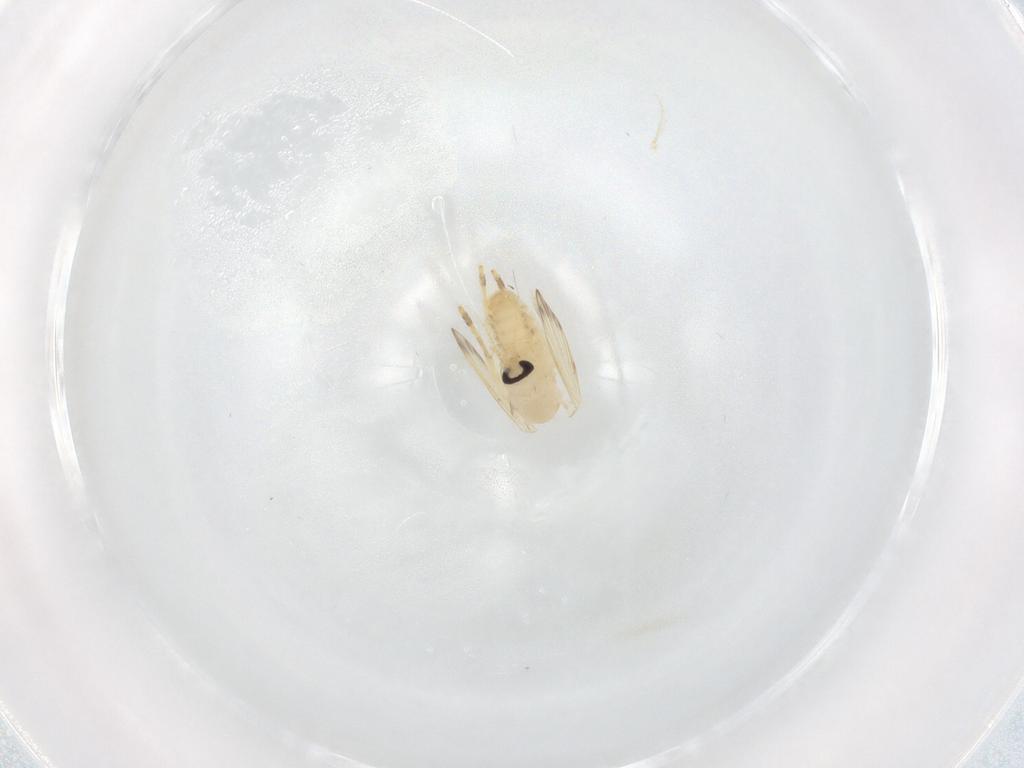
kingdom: Animalia
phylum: Arthropoda
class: Insecta
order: Diptera
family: Psychodidae
